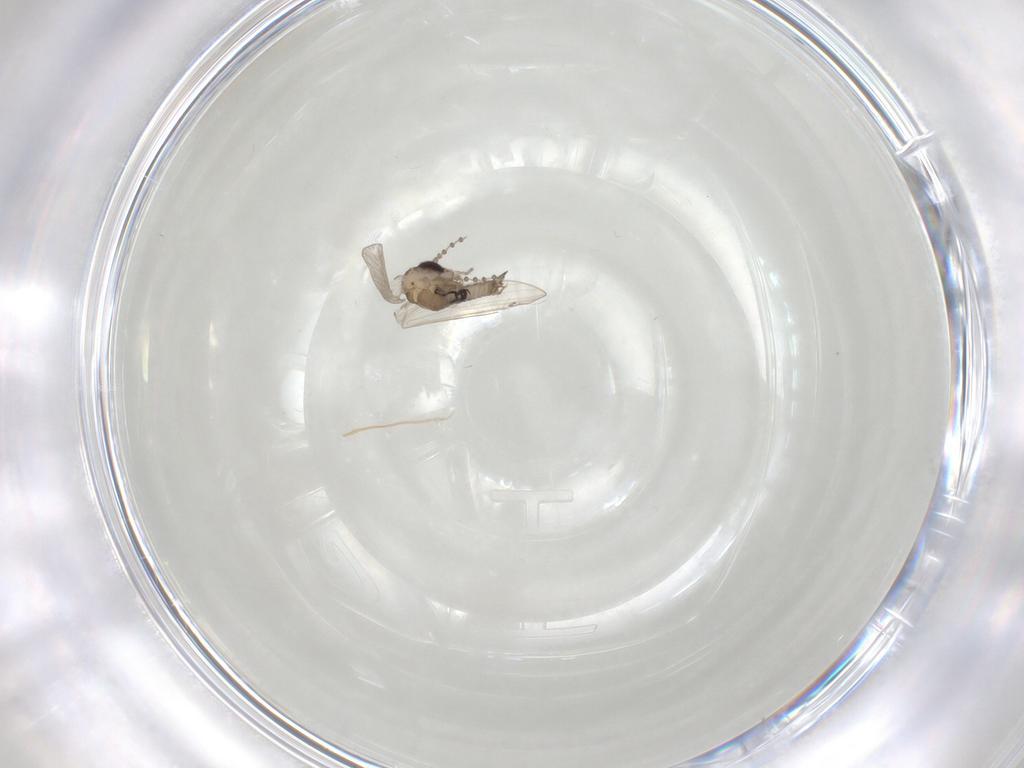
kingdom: Animalia
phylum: Arthropoda
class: Insecta
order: Diptera
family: Psychodidae
